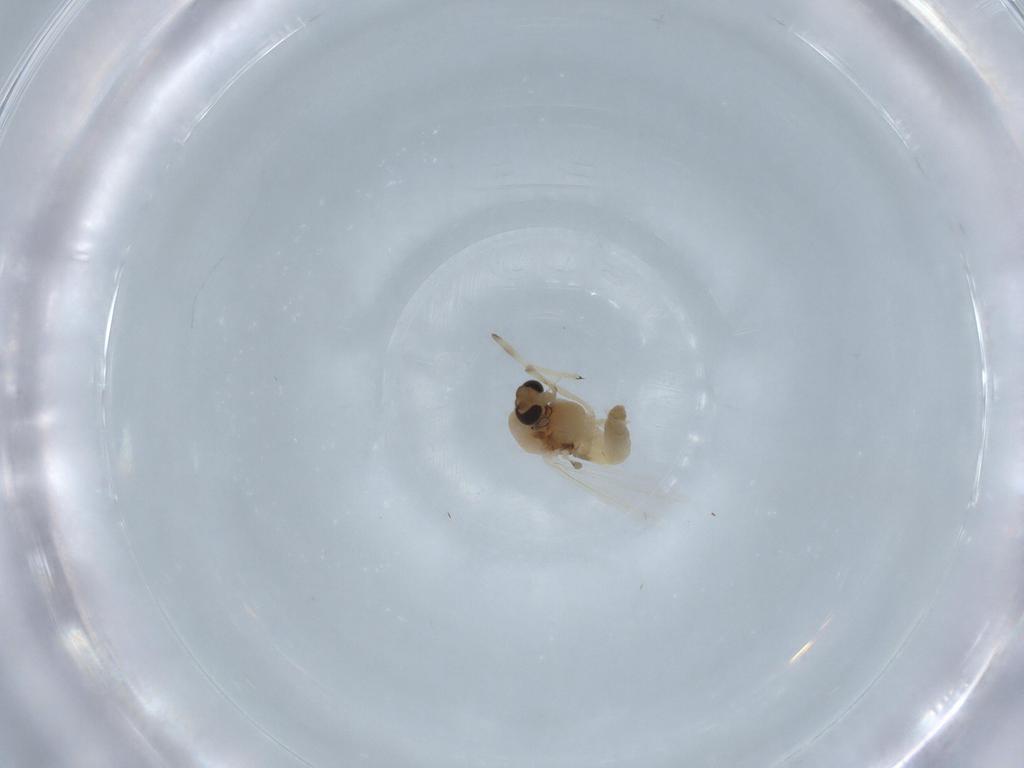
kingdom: Animalia
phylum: Arthropoda
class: Insecta
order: Diptera
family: Chironomidae
